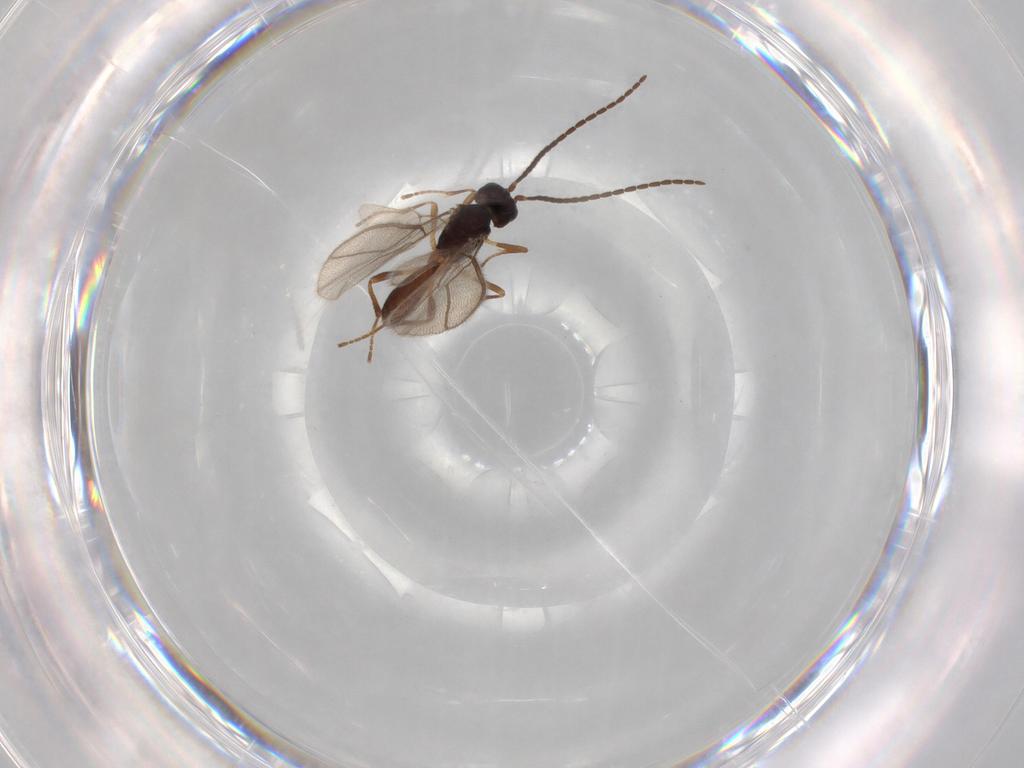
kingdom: Animalia
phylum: Arthropoda
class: Insecta
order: Hymenoptera
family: Braconidae
